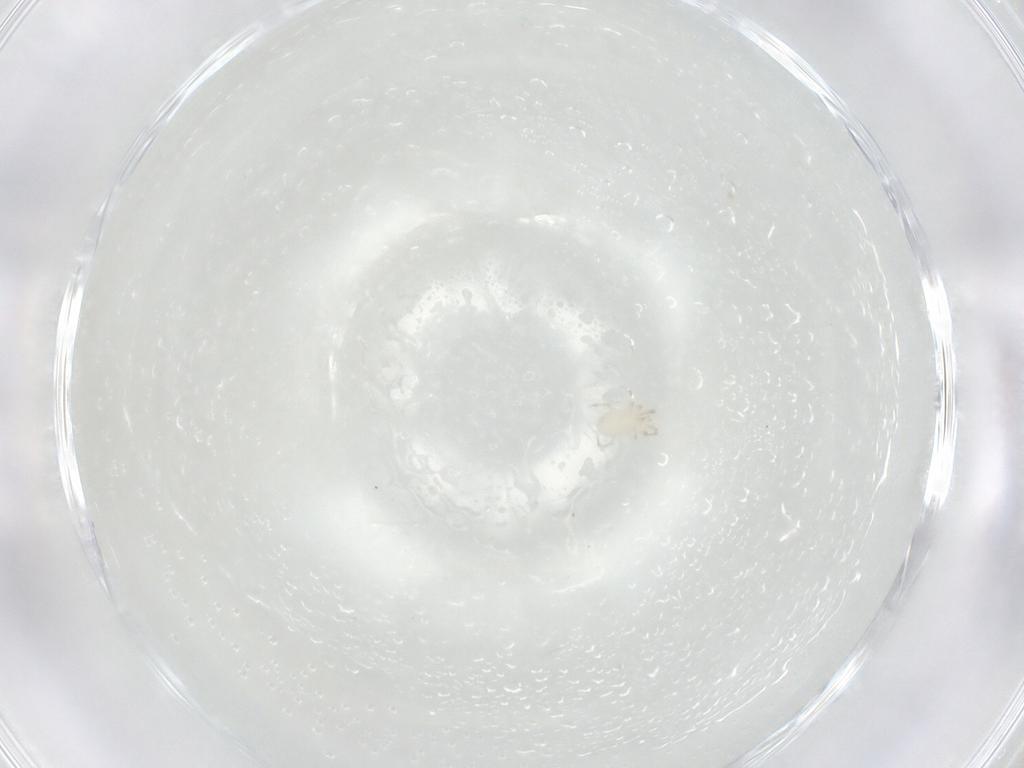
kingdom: Animalia
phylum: Arthropoda
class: Arachnida
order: Mesostigmata
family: Phytoseiidae
